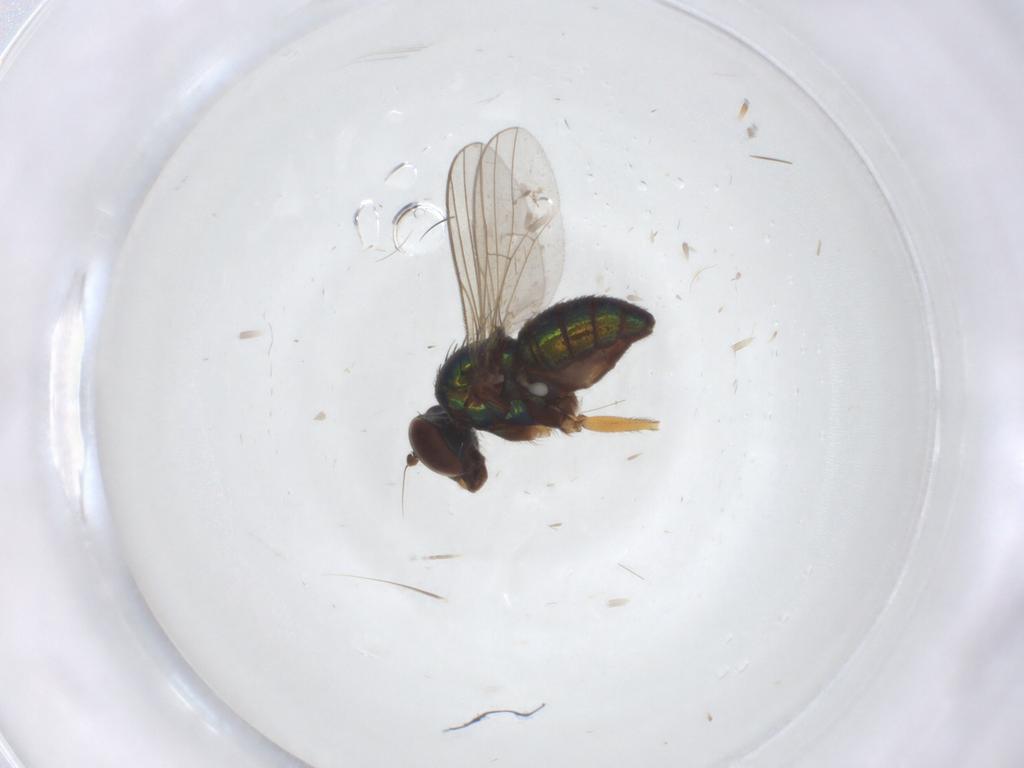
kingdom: Animalia
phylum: Arthropoda
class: Insecta
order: Diptera
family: Ceratopogonidae
